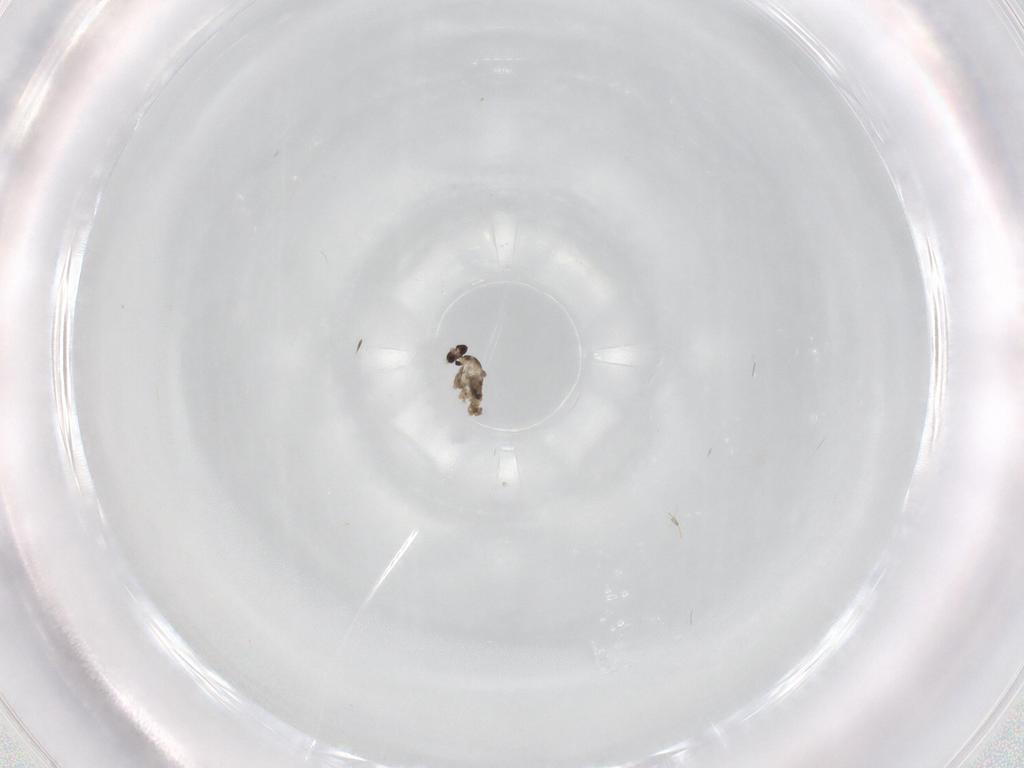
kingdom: Animalia
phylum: Arthropoda
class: Insecta
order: Diptera
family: Cecidomyiidae
